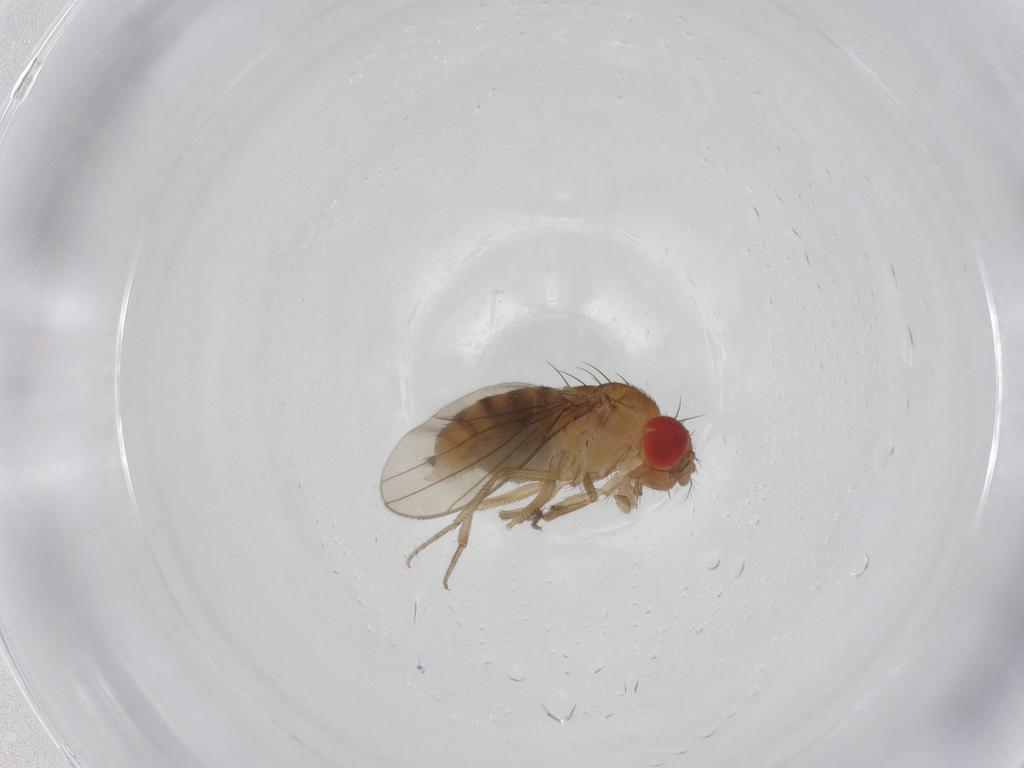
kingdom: Animalia
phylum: Arthropoda
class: Insecta
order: Diptera
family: Drosophilidae
